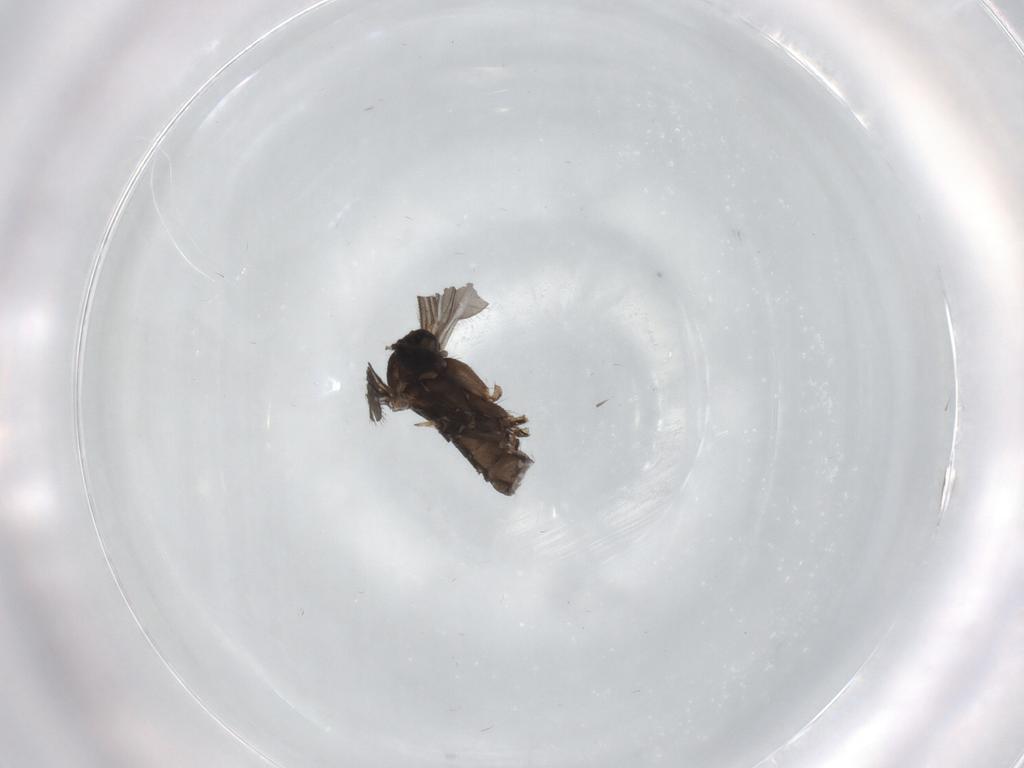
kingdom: Animalia
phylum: Arthropoda
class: Insecta
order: Diptera
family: Sciaridae
